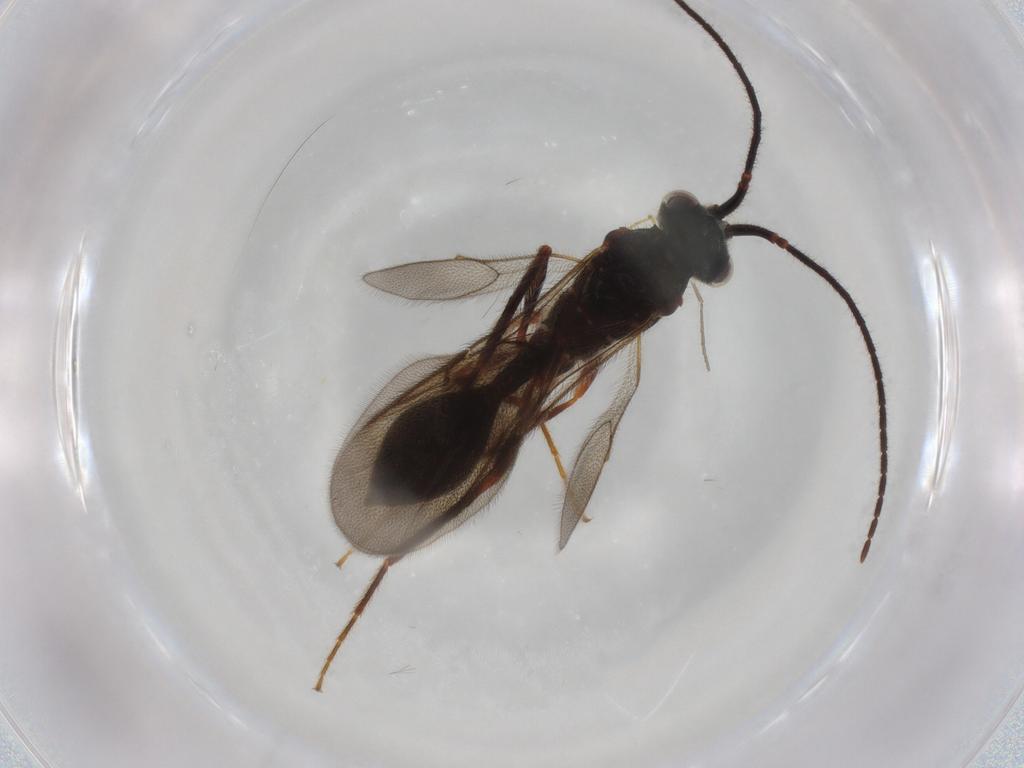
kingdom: Animalia
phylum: Arthropoda
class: Insecta
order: Hymenoptera
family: Diapriidae
